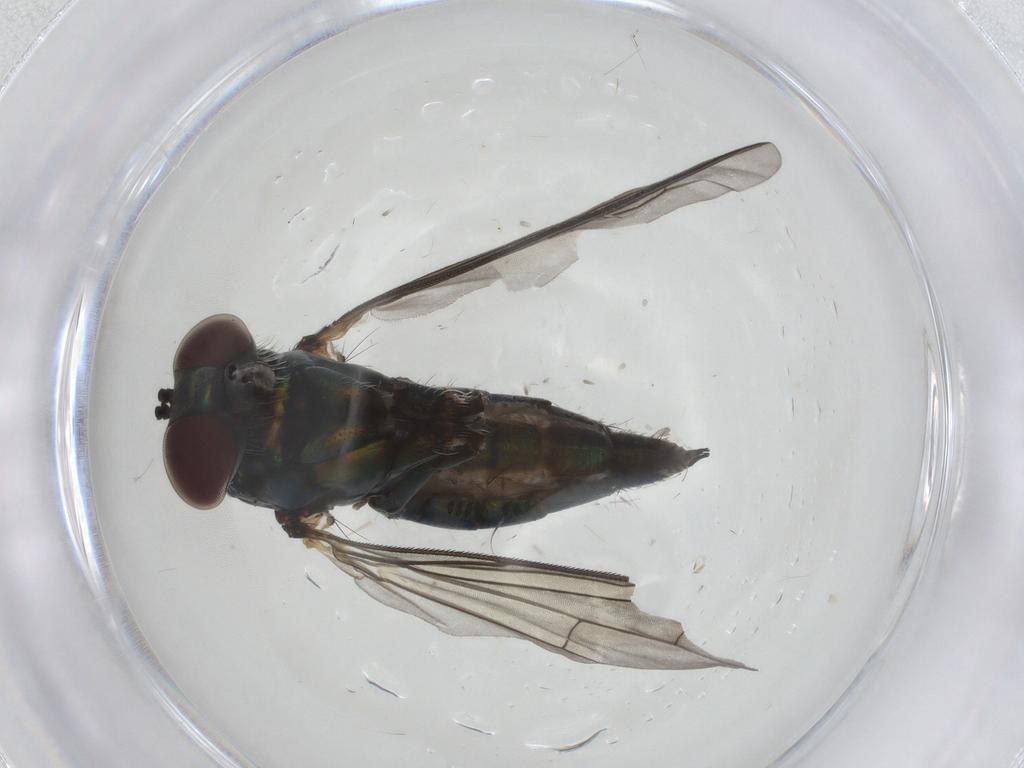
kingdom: Animalia
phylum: Arthropoda
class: Insecta
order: Diptera
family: Dolichopodidae
